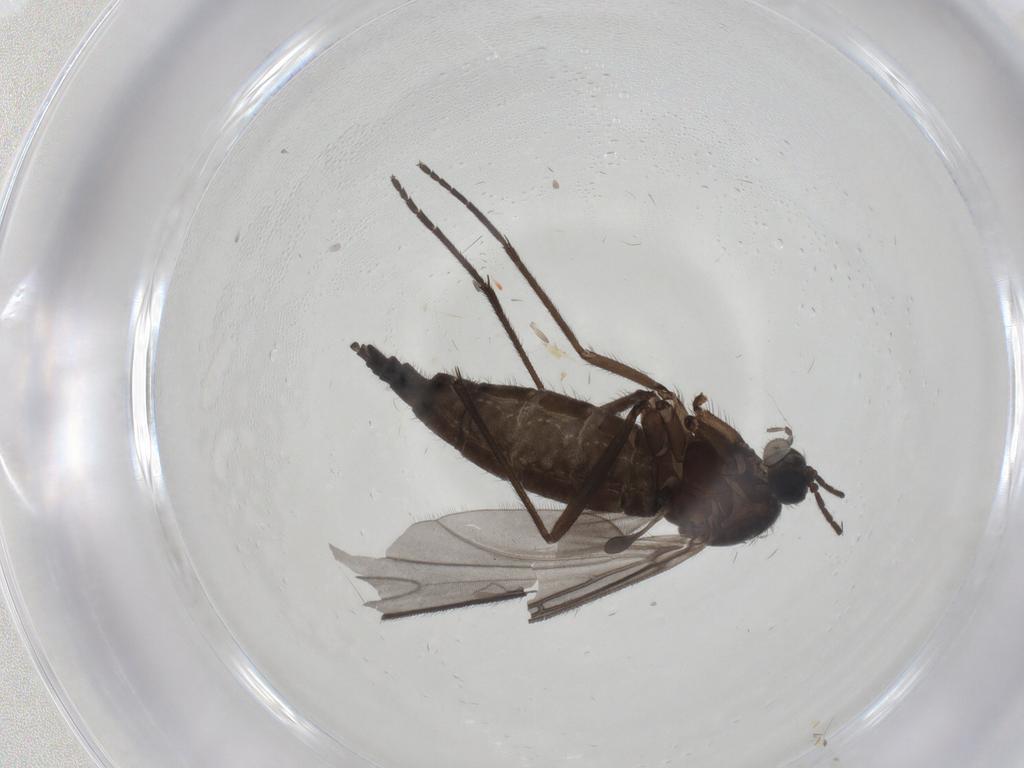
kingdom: Animalia
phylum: Arthropoda
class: Insecta
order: Diptera
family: Sciaridae
